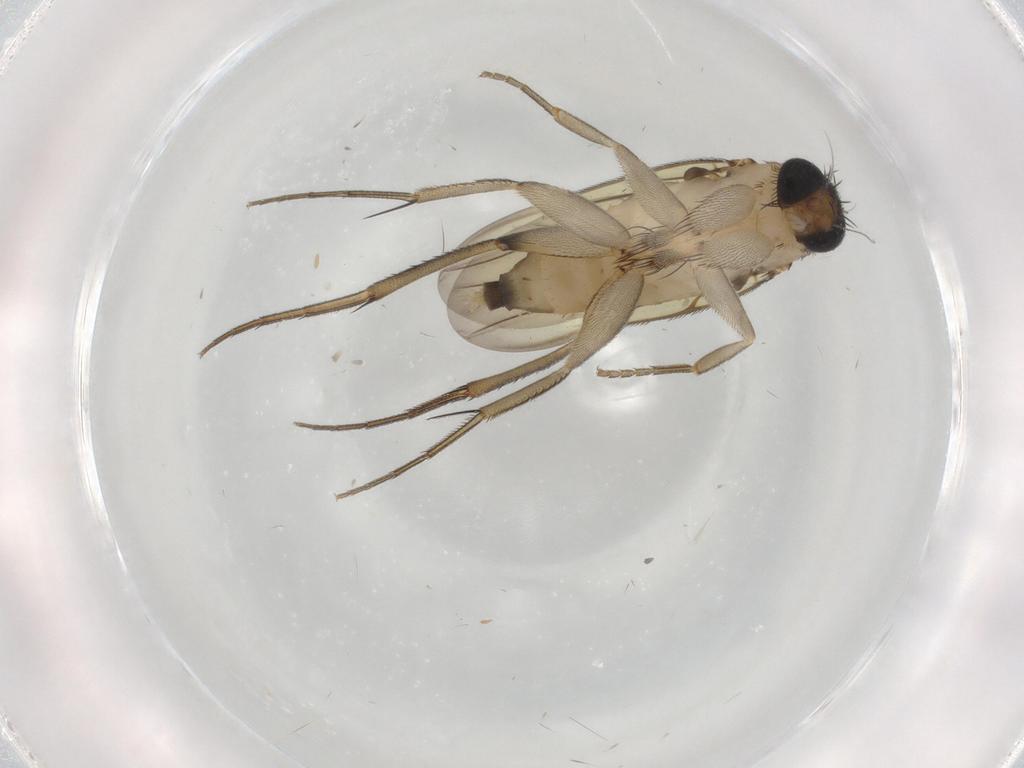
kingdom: Animalia
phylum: Arthropoda
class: Insecta
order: Diptera
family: Phoridae
